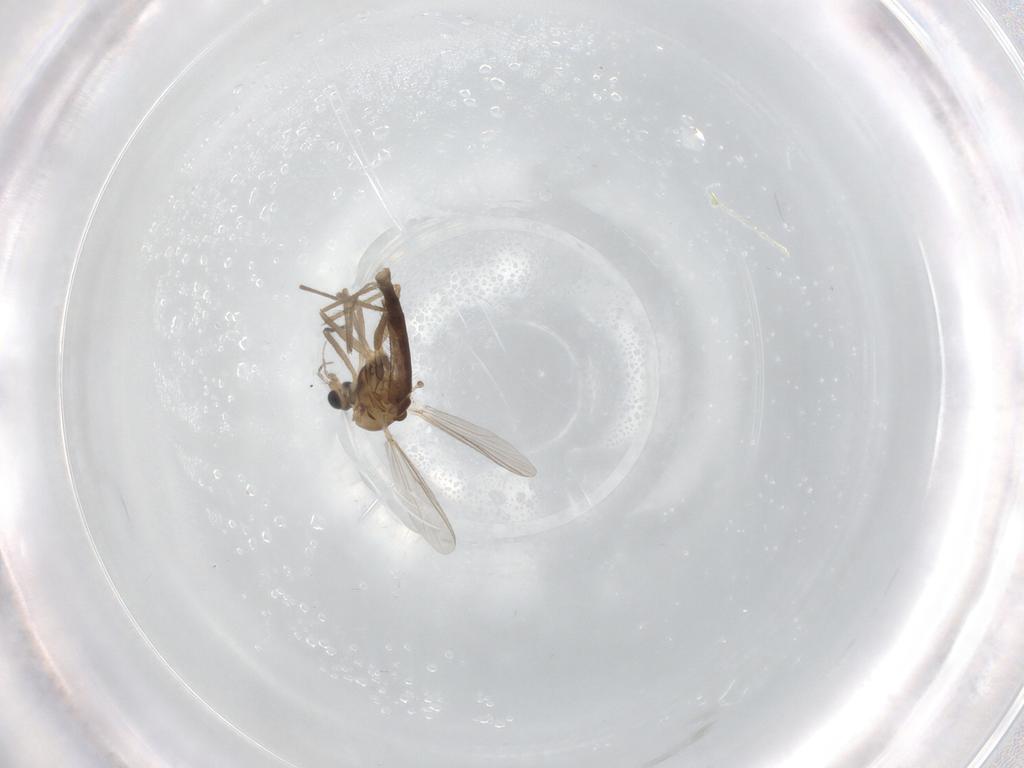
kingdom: Animalia
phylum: Arthropoda
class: Insecta
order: Diptera
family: Chironomidae
